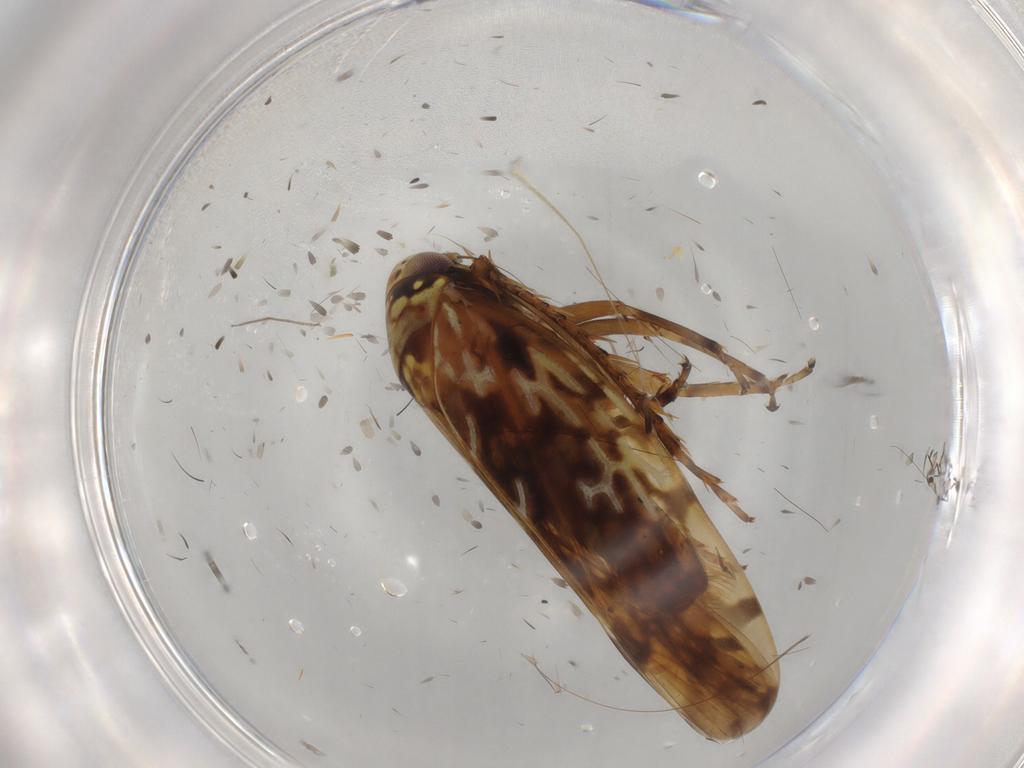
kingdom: Animalia
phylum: Arthropoda
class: Insecta
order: Hemiptera
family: Cicadellidae
